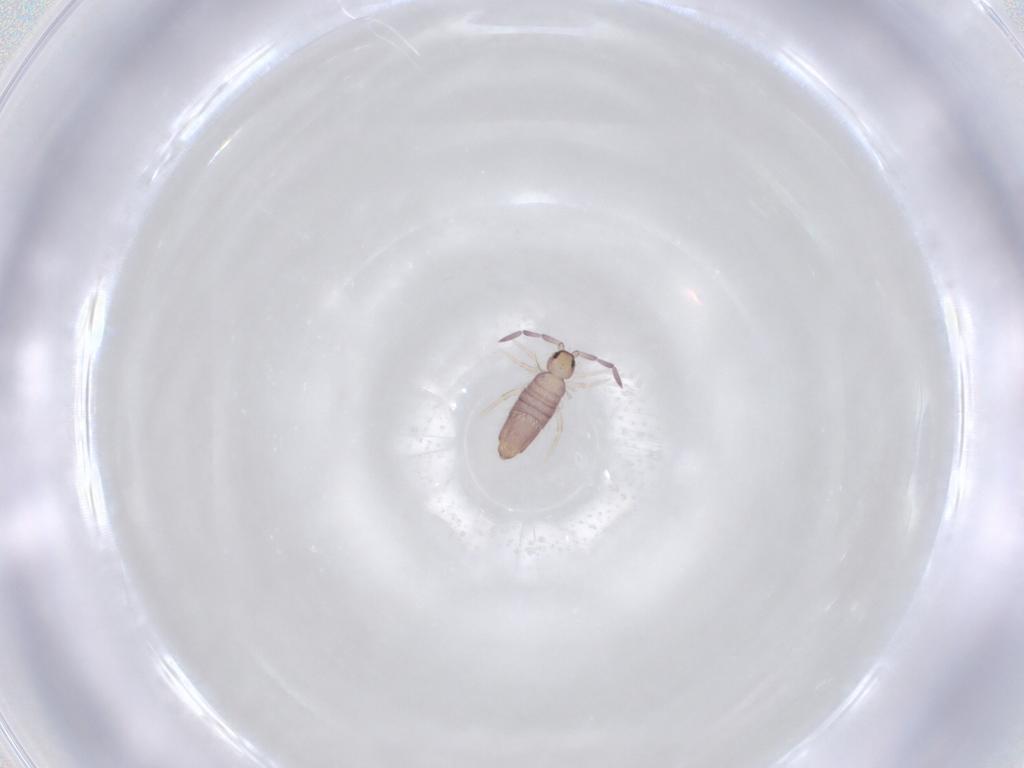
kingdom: Animalia
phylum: Arthropoda
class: Collembola
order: Entomobryomorpha
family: Entomobryidae
